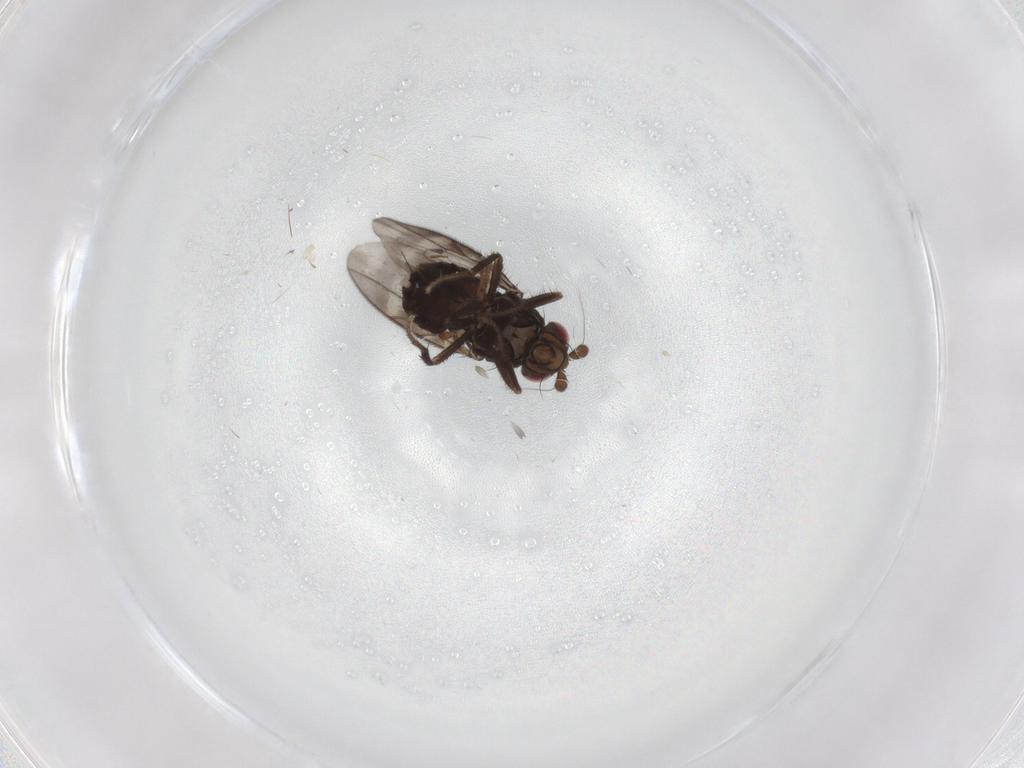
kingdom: Animalia
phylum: Arthropoda
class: Insecta
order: Diptera
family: Sphaeroceridae
